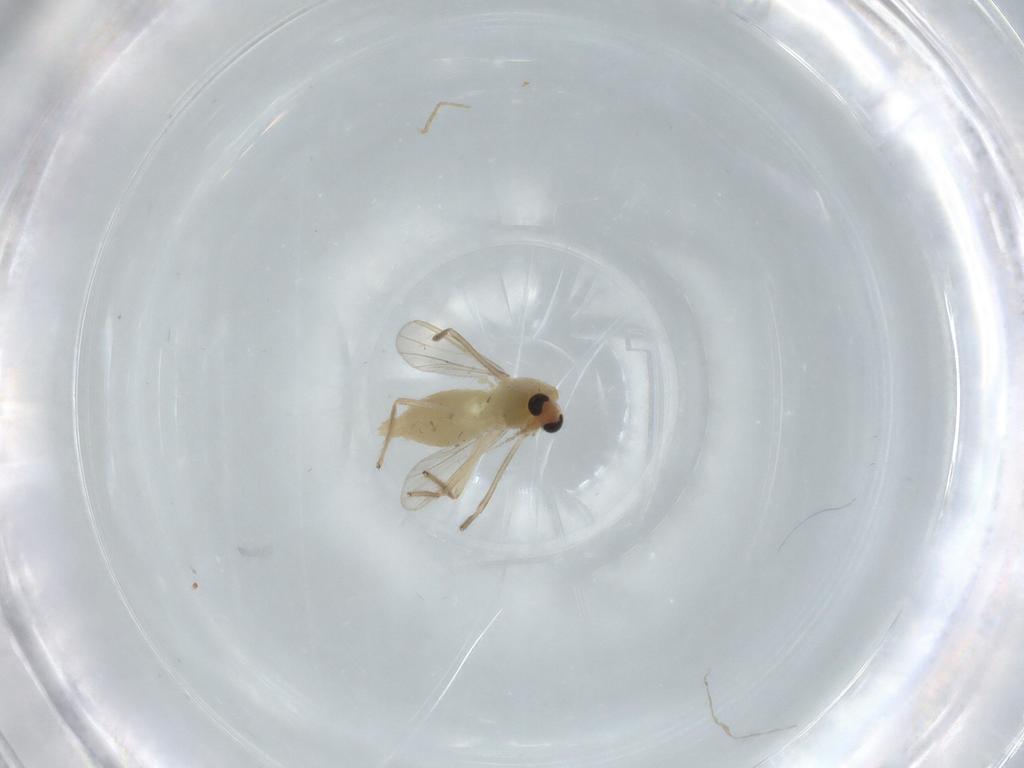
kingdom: Animalia
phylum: Arthropoda
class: Insecta
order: Diptera
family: Chironomidae
